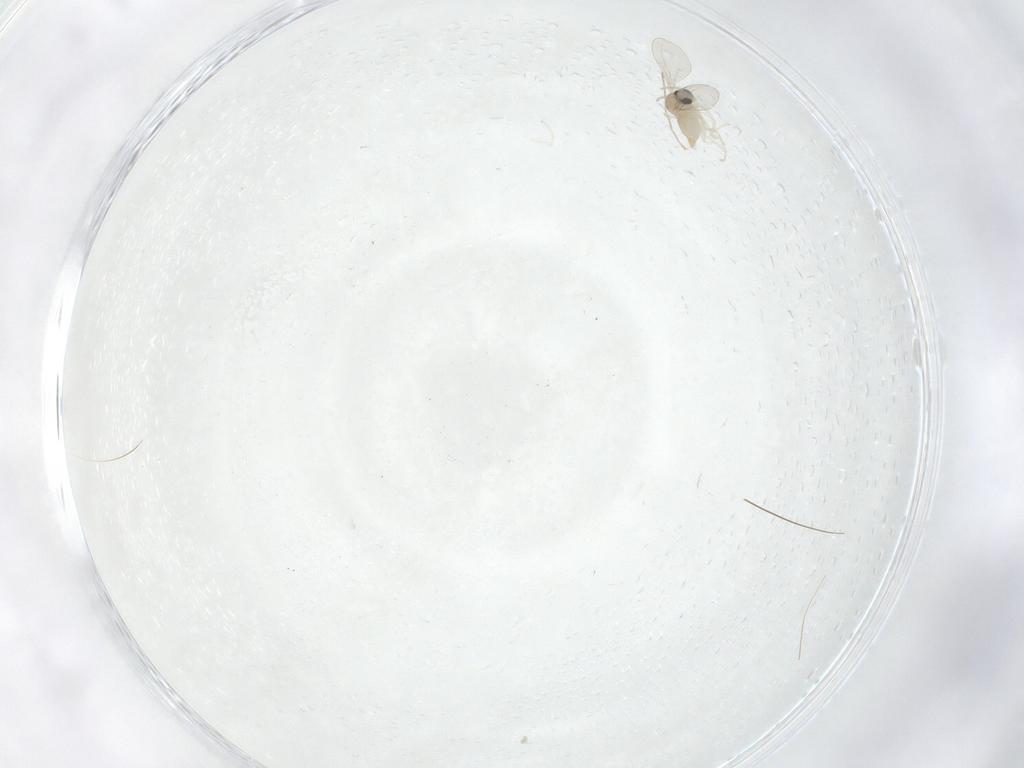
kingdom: Animalia
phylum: Arthropoda
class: Insecta
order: Diptera
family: Cecidomyiidae
